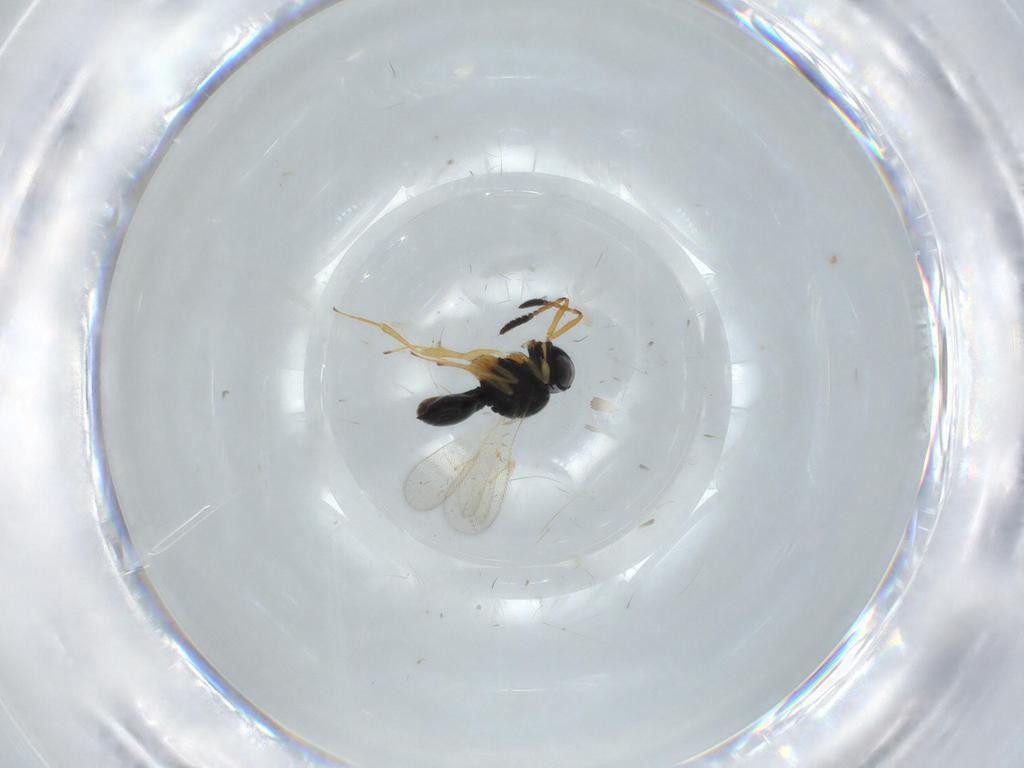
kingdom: Animalia
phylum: Arthropoda
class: Insecta
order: Hymenoptera
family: Scelionidae
